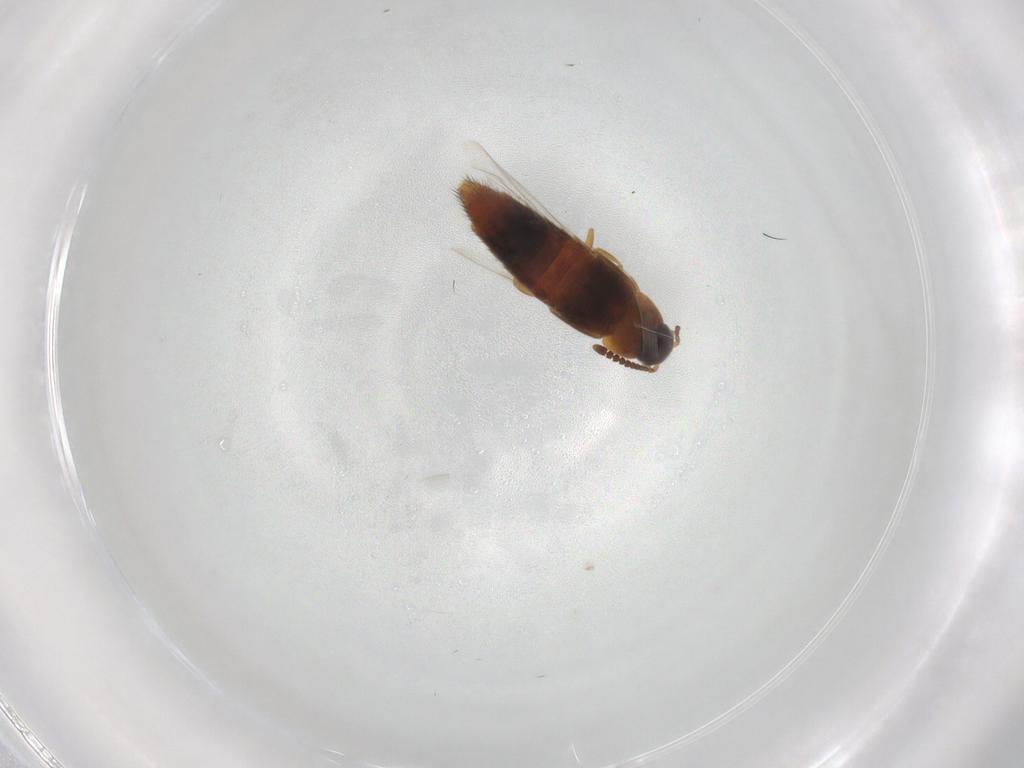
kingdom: Animalia
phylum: Arthropoda
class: Insecta
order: Coleoptera
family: Staphylinidae
